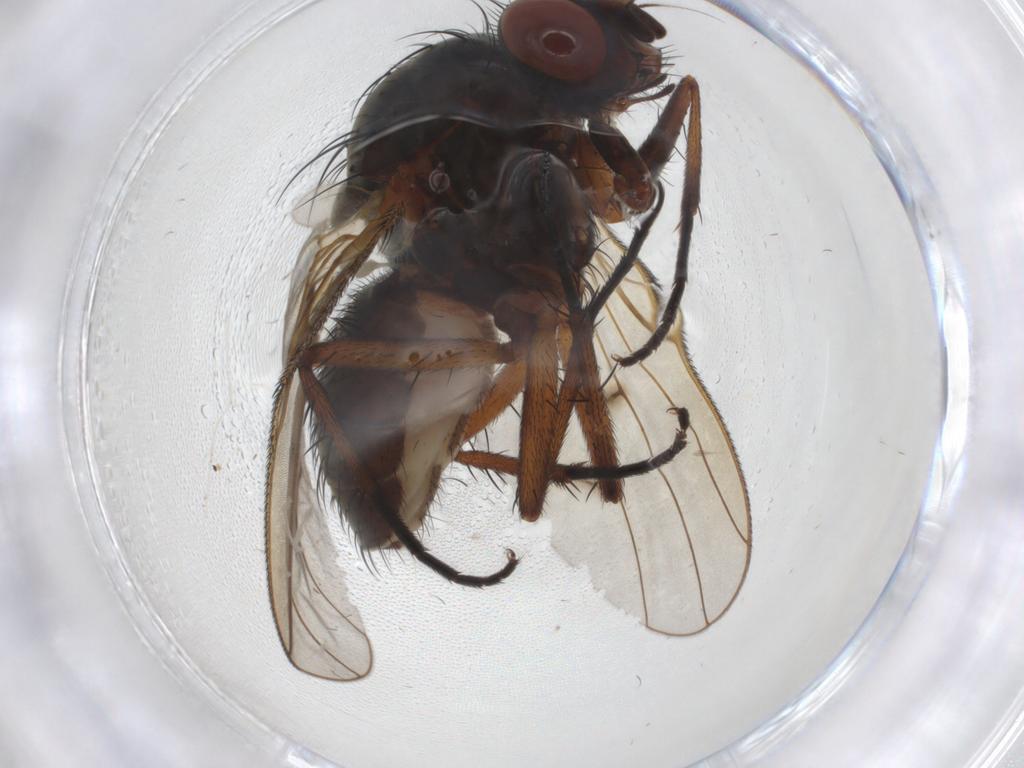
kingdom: Animalia
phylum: Arthropoda
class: Insecta
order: Diptera
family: Anthomyiidae
